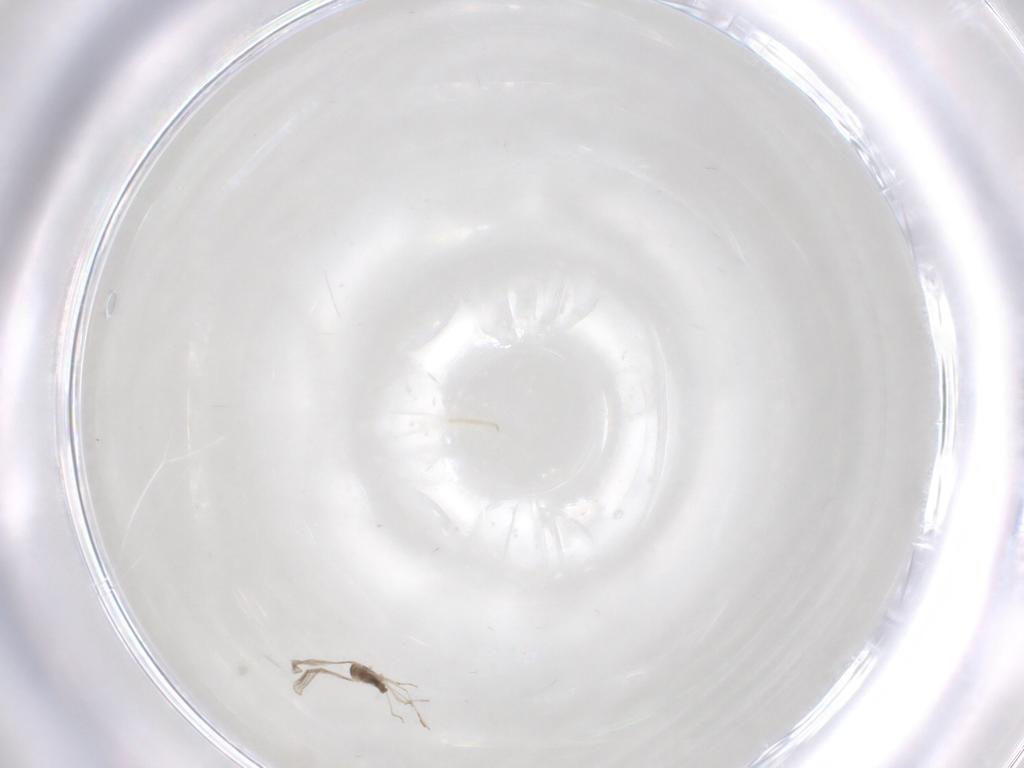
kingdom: Animalia
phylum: Arthropoda
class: Insecta
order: Diptera
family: Cecidomyiidae
